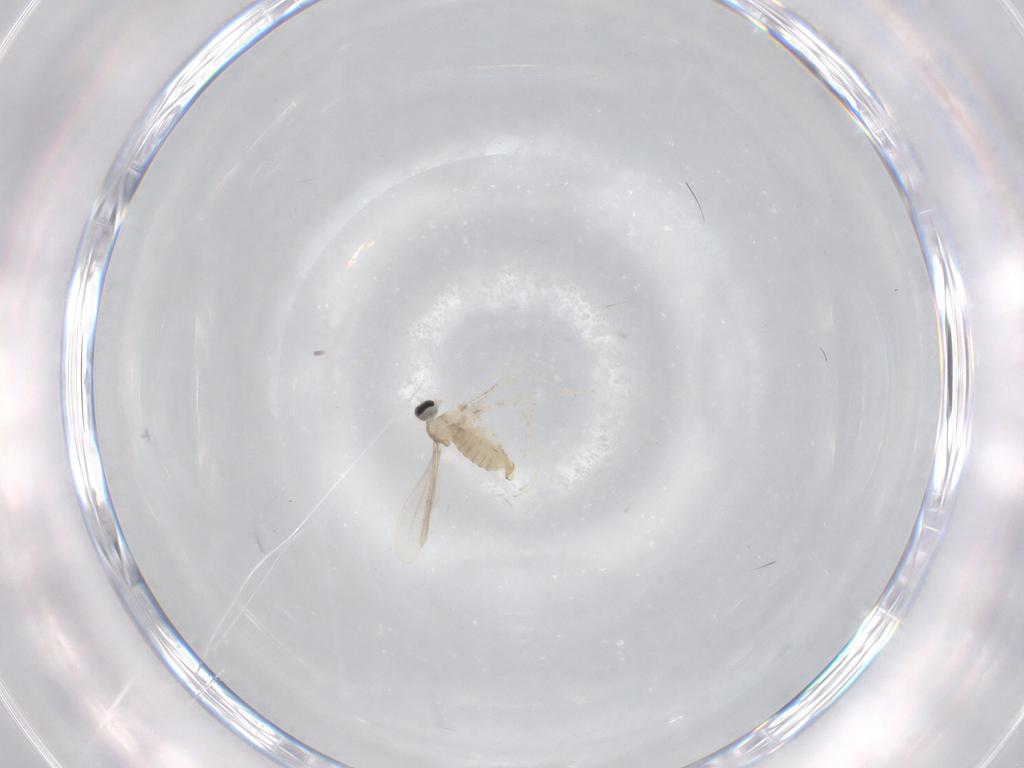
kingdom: Animalia
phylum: Arthropoda
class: Insecta
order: Diptera
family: Cecidomyiidae
